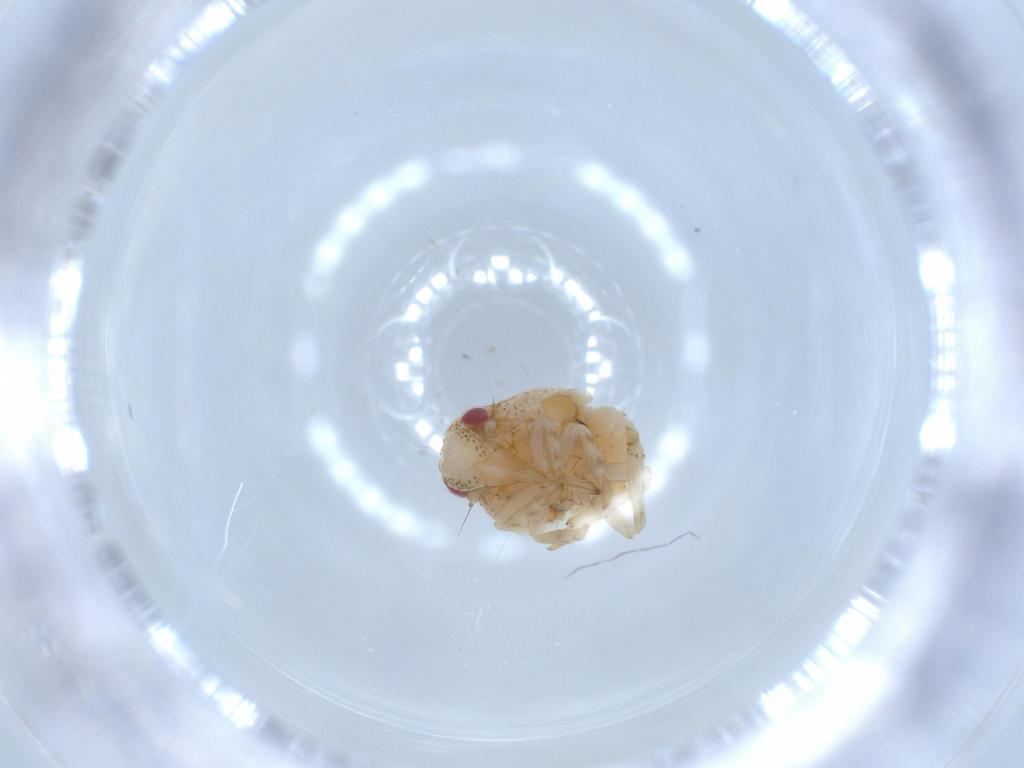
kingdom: Animalia
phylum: Arthropoda
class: Insecta
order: Hemiptera
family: Acanaloniidae
